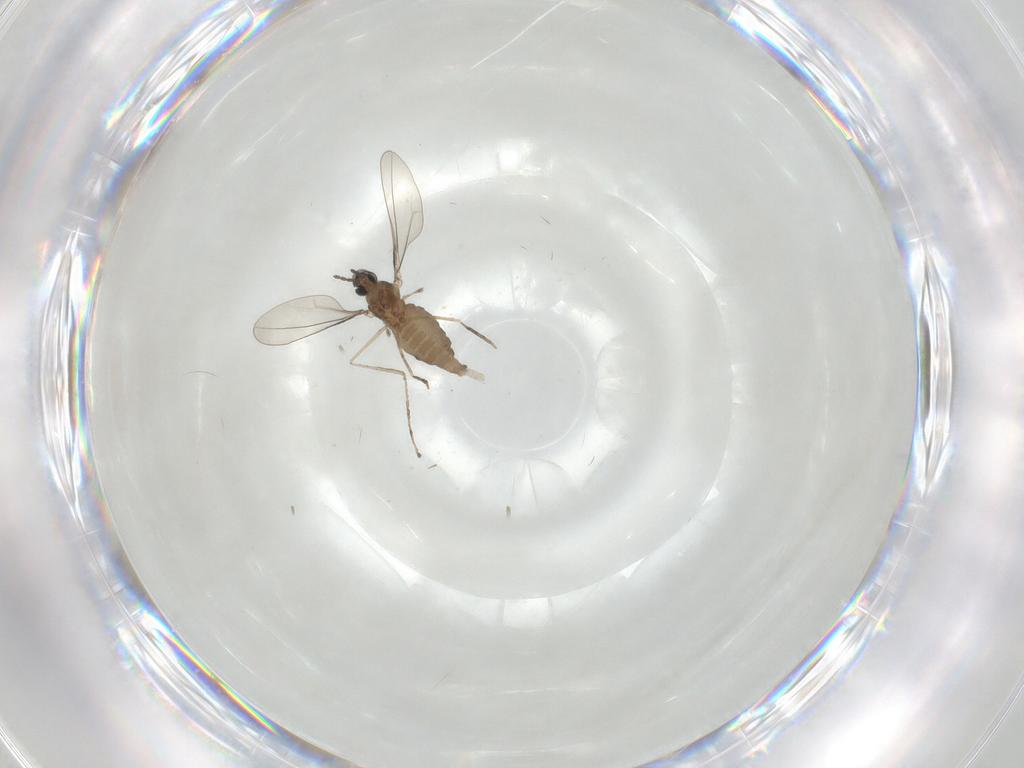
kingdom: Animalia
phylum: Arthropoda
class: Insecta
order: Diptera
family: Cecidomyiidae
